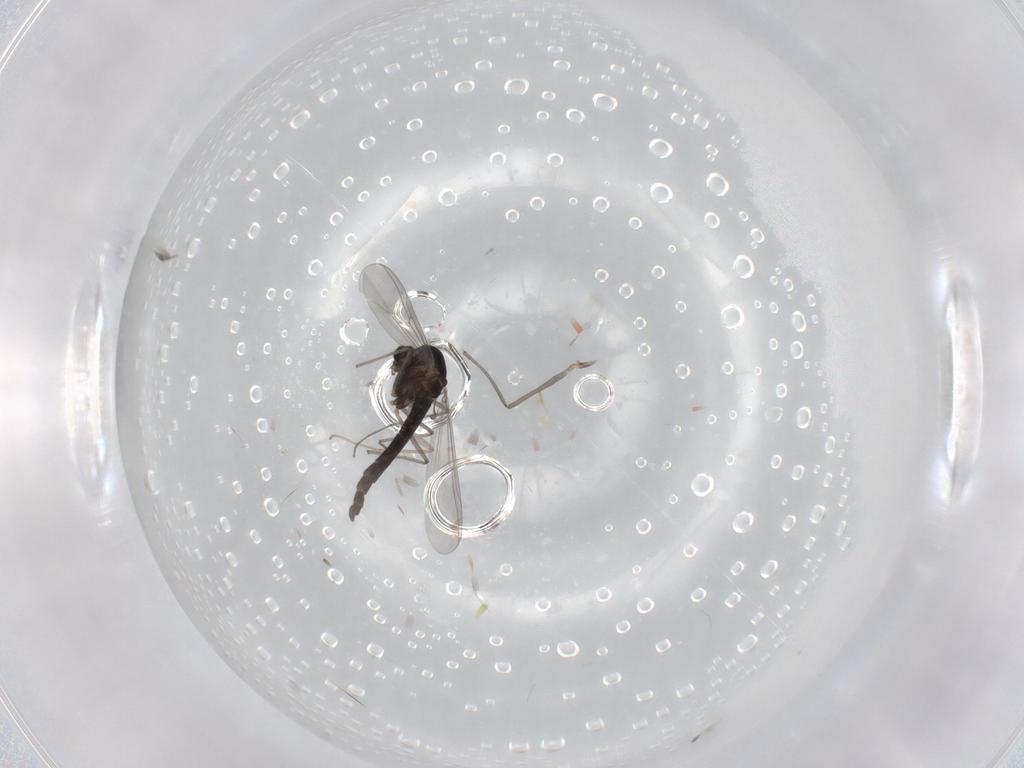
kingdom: Animalia
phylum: Arthropoda
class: Insecta
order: Diptera
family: Chironomidae
